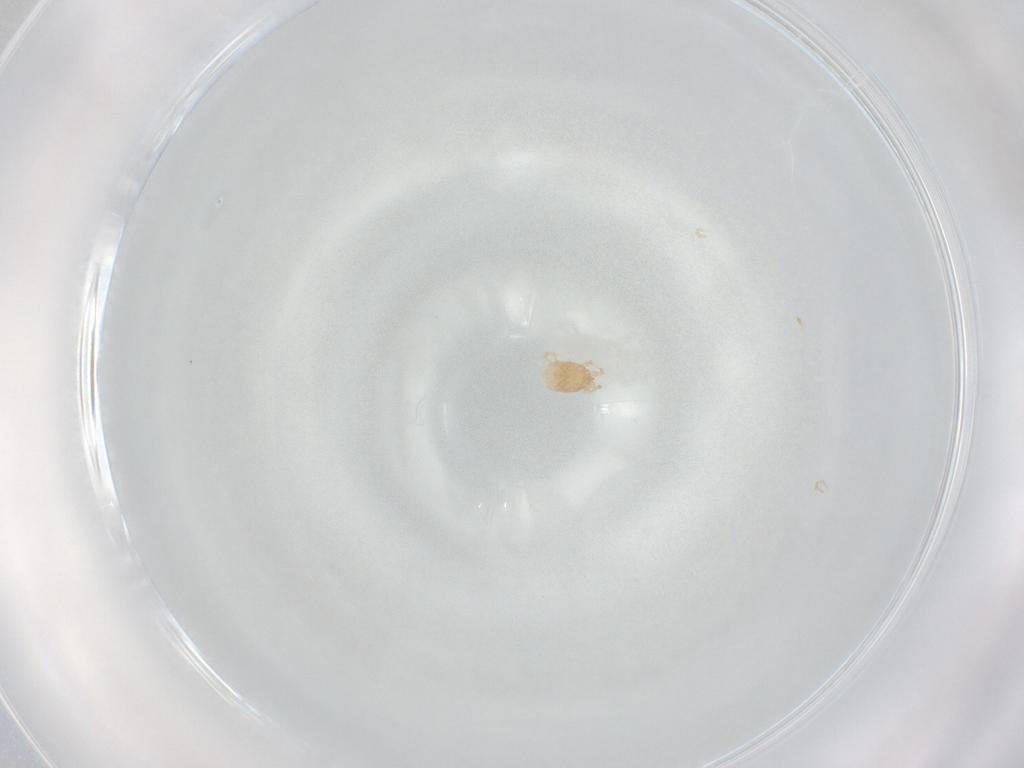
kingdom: Animalia
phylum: Arthropoda
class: Arachnida
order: Mesostigmata
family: Melicharidae
